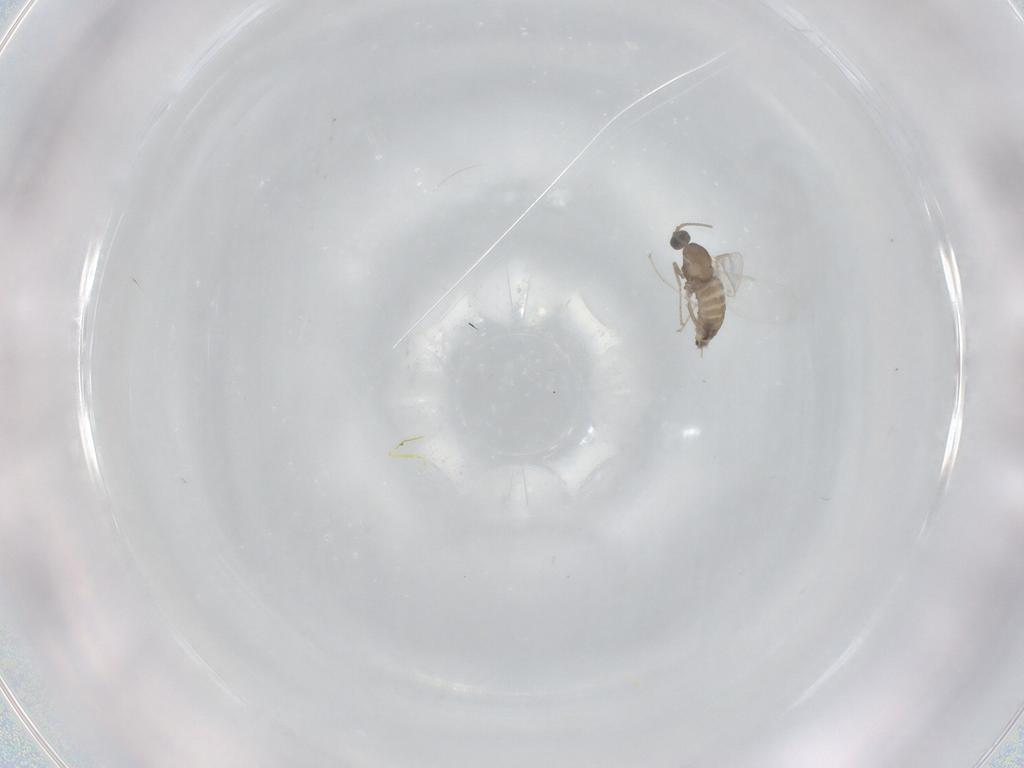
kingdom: Animalia
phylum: Arthropoda
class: Insecta
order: Diptera
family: Cecidomyiidae
